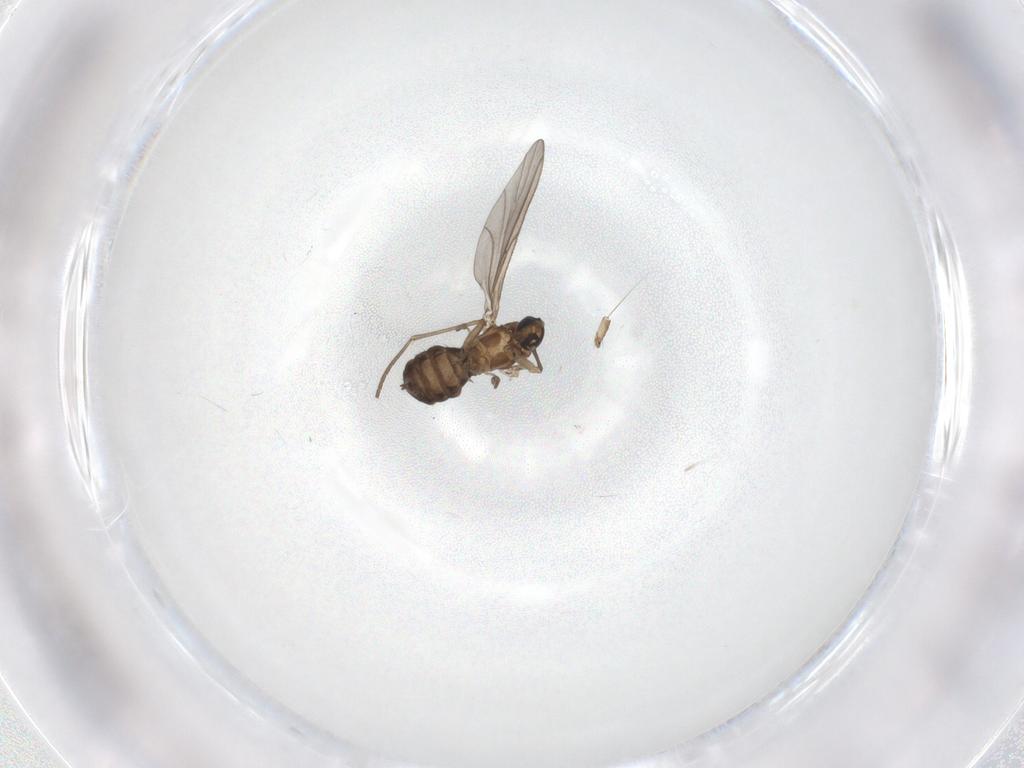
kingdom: Animalia
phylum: Arthropoda
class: Insecta
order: Diptera
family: Sciaridae
